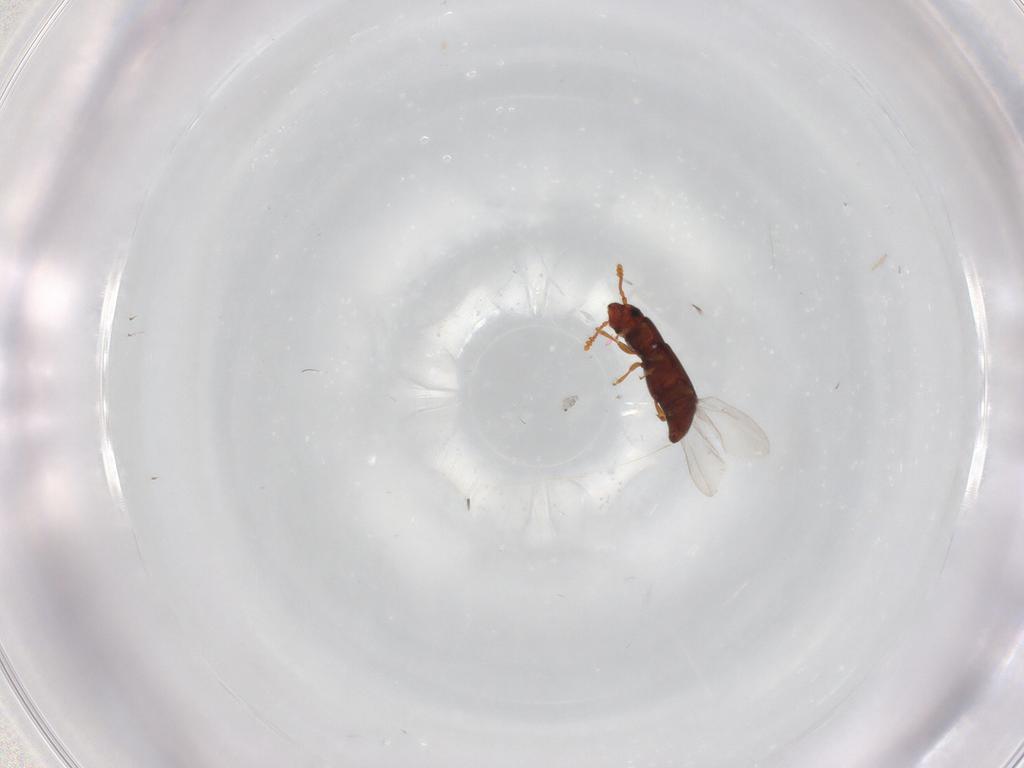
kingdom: Animalia
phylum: Arthropoda
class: Insecta
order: Coleoptera
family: Smicripidae
